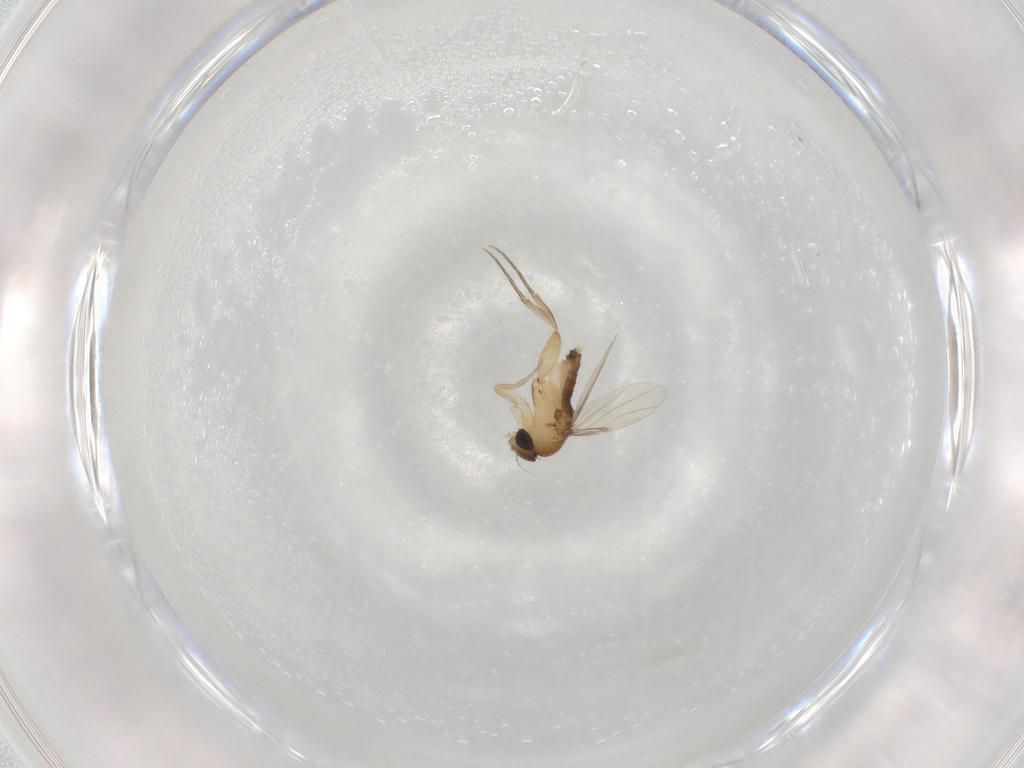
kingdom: Animalia
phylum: Arthropoda
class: Insecta
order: Diptera
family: Phoridae
